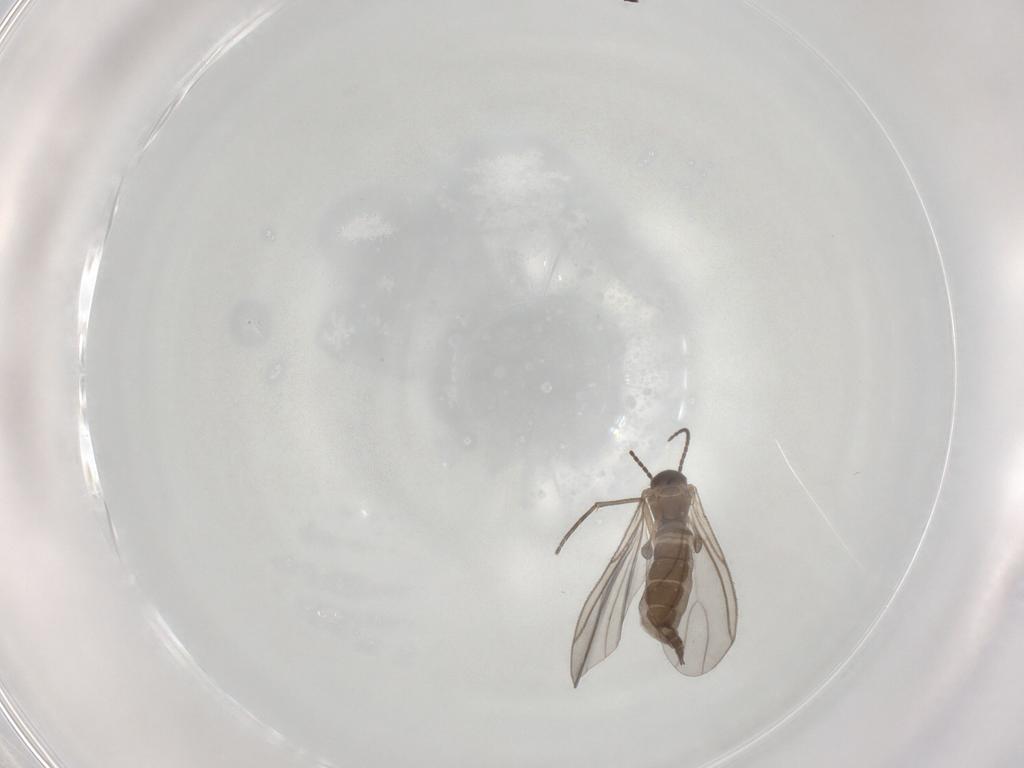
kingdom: Animalia
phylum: Arthropoda
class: Insecta
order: Diptera
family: Sciaridae
